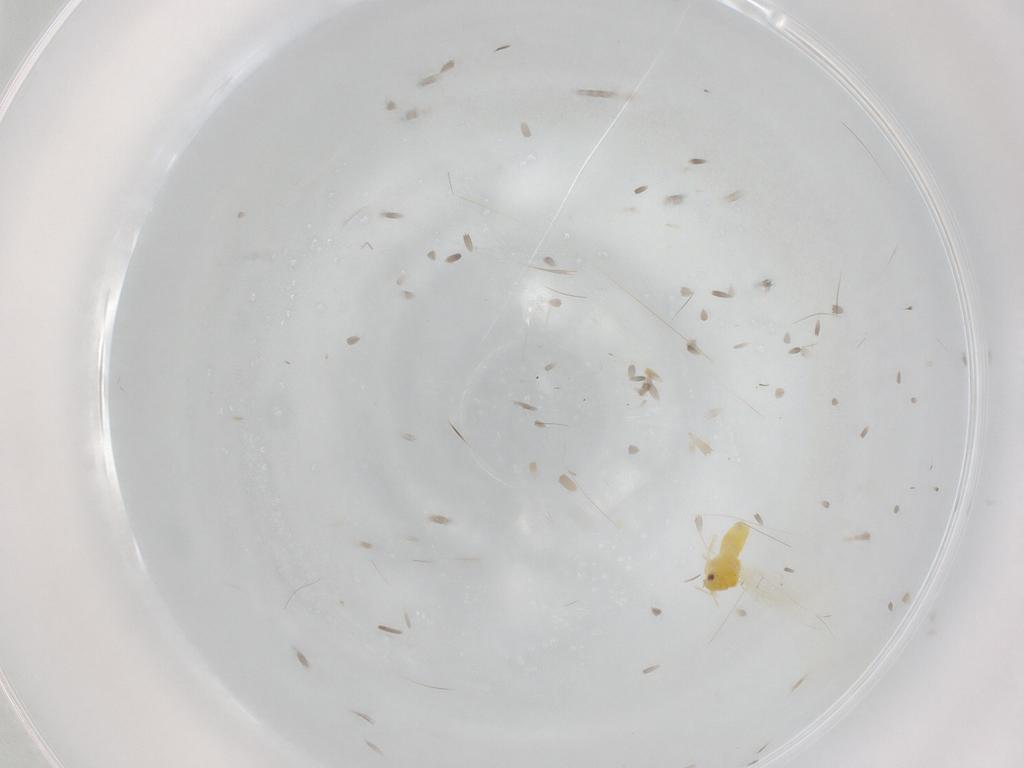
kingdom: Animalia
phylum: Arthropoda
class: Insecta
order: Hemiptera
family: Aleyrodidae
